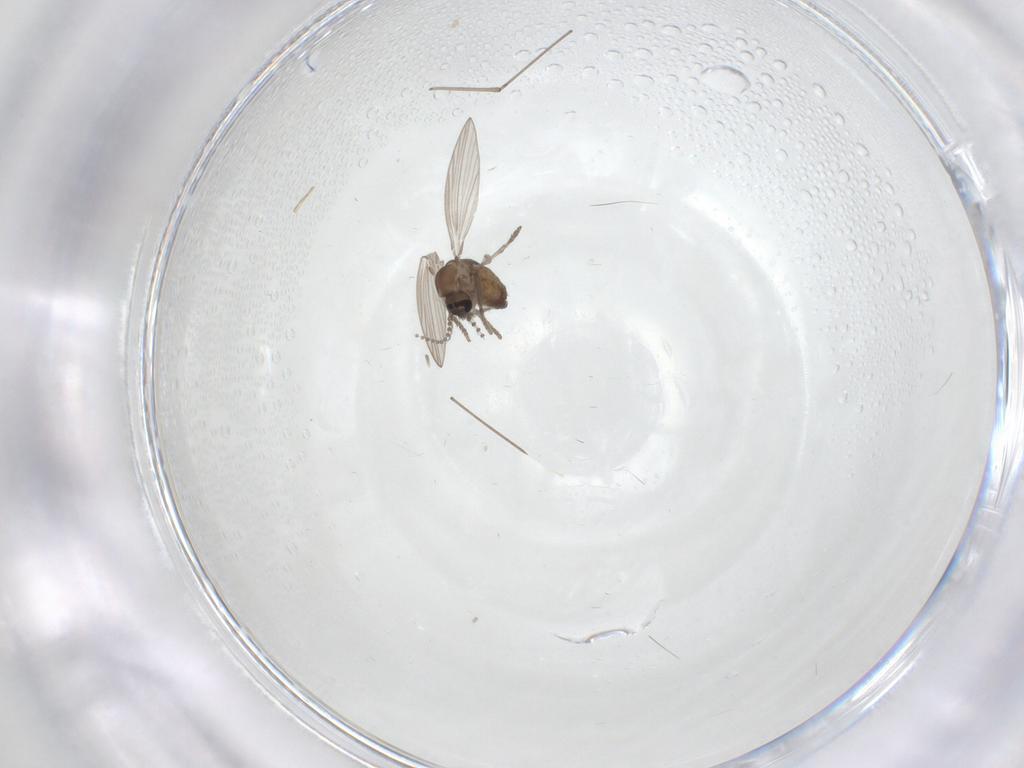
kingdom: Animalia
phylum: Arthropoda
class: Insecta
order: Diptera
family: Psychodidae
